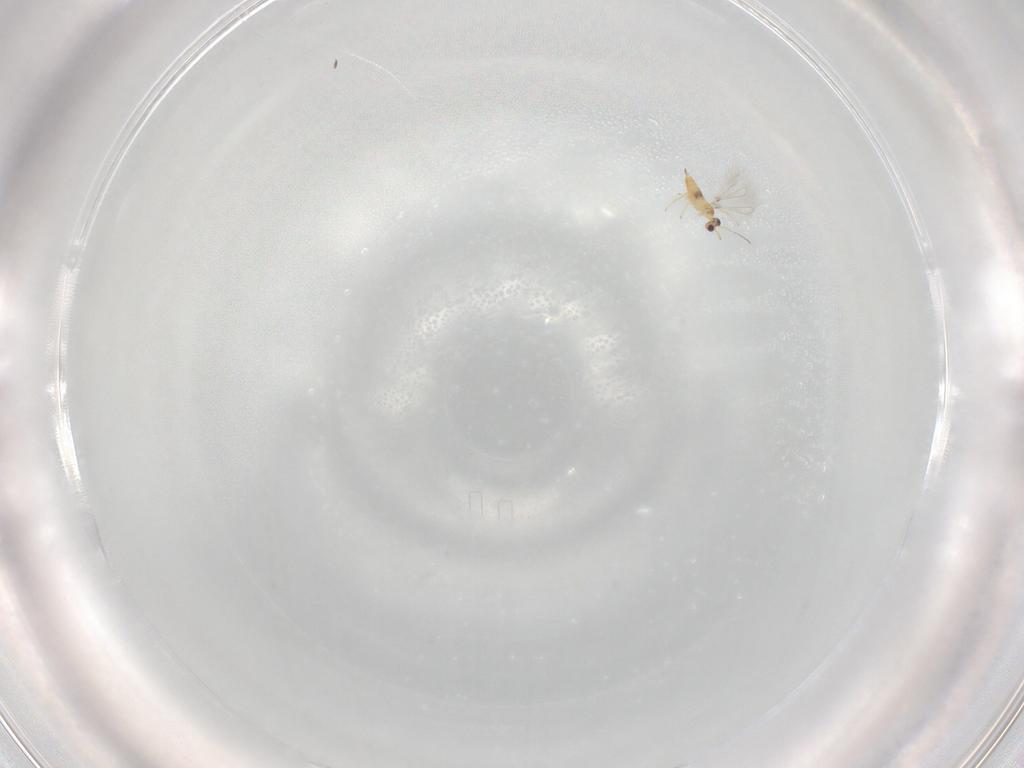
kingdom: Animalia
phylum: Arthropoda
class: Insecta
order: Hymenoptera
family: Mymaridae
